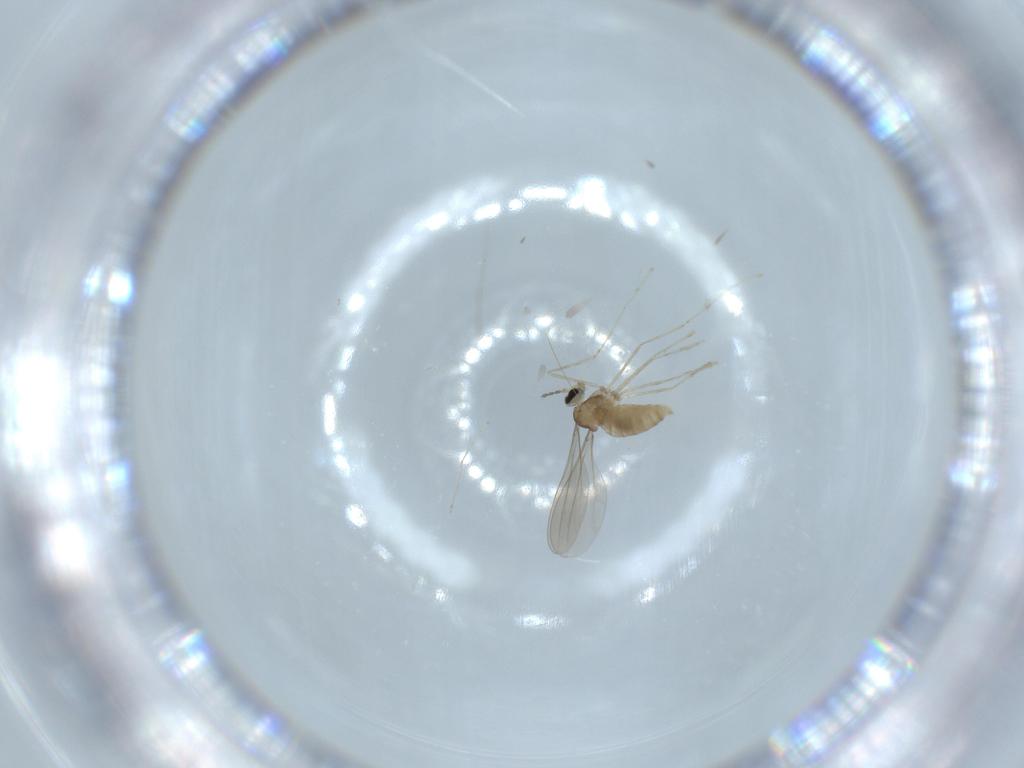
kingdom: Animalia
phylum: Arthropoda
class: Insecta
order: Diptera
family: Cecidomyiidae
